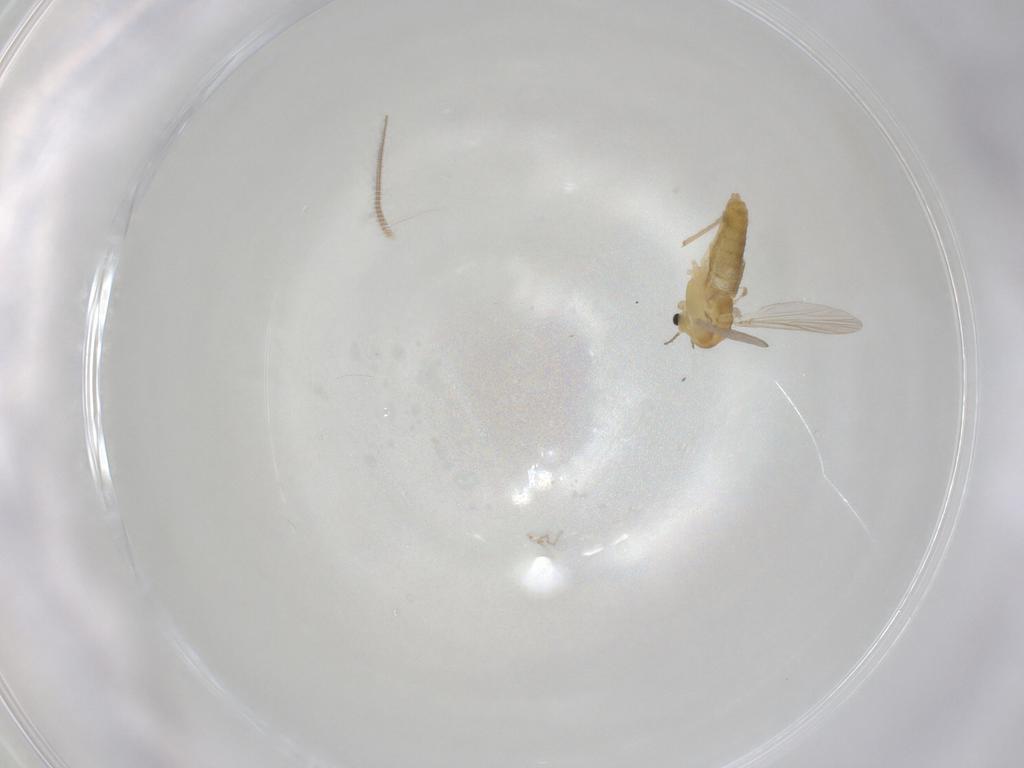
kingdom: Animalia
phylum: Arthropoda
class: Insecta
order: Diptera
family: Chironomidae
